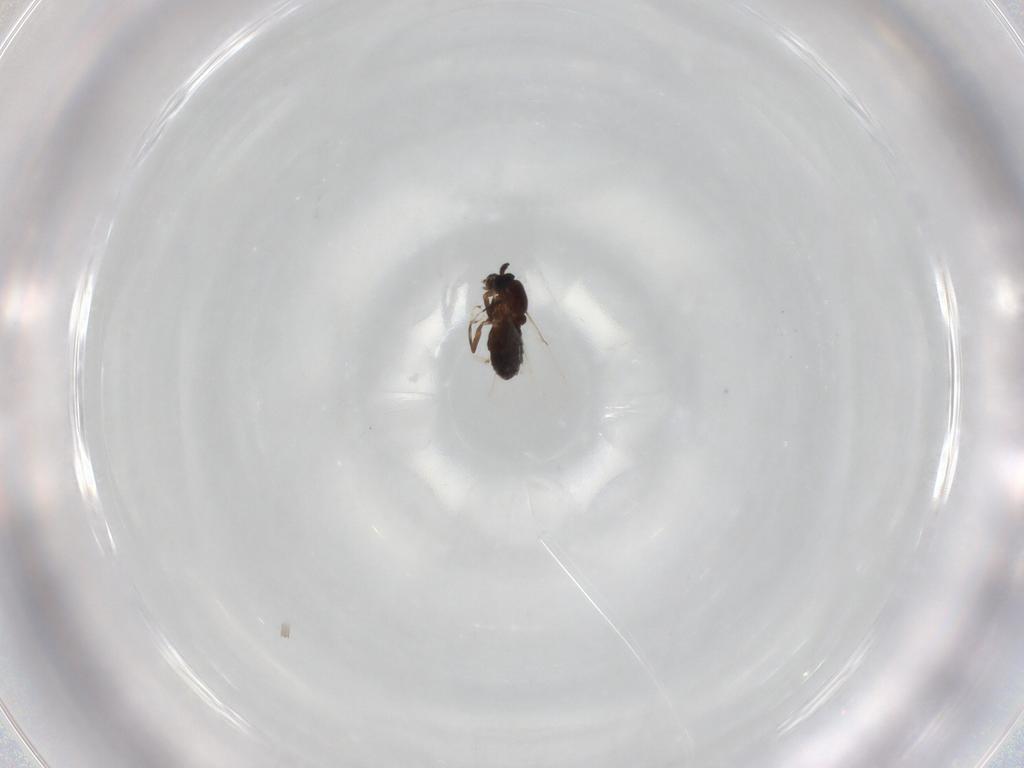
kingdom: Animalia
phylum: Arthropoda
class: Insecta
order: Diptera
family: Scatopsidae
